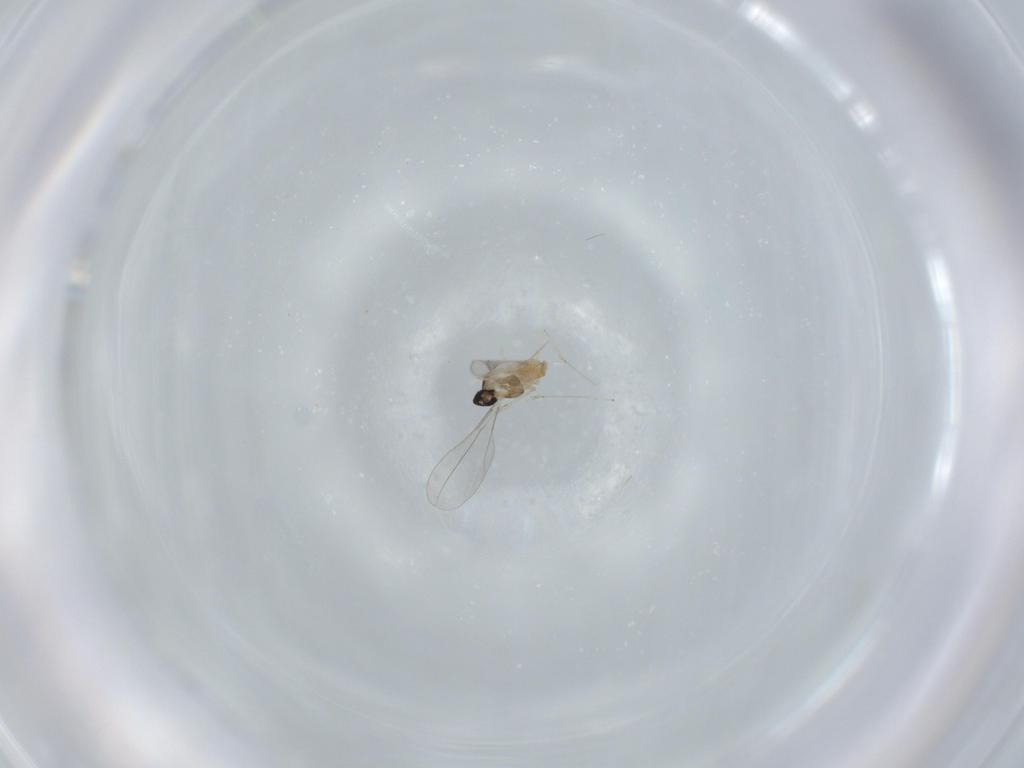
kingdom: Animalia
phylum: Arthropoda
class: Insecta
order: Diptera
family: Cecidomyiidae
